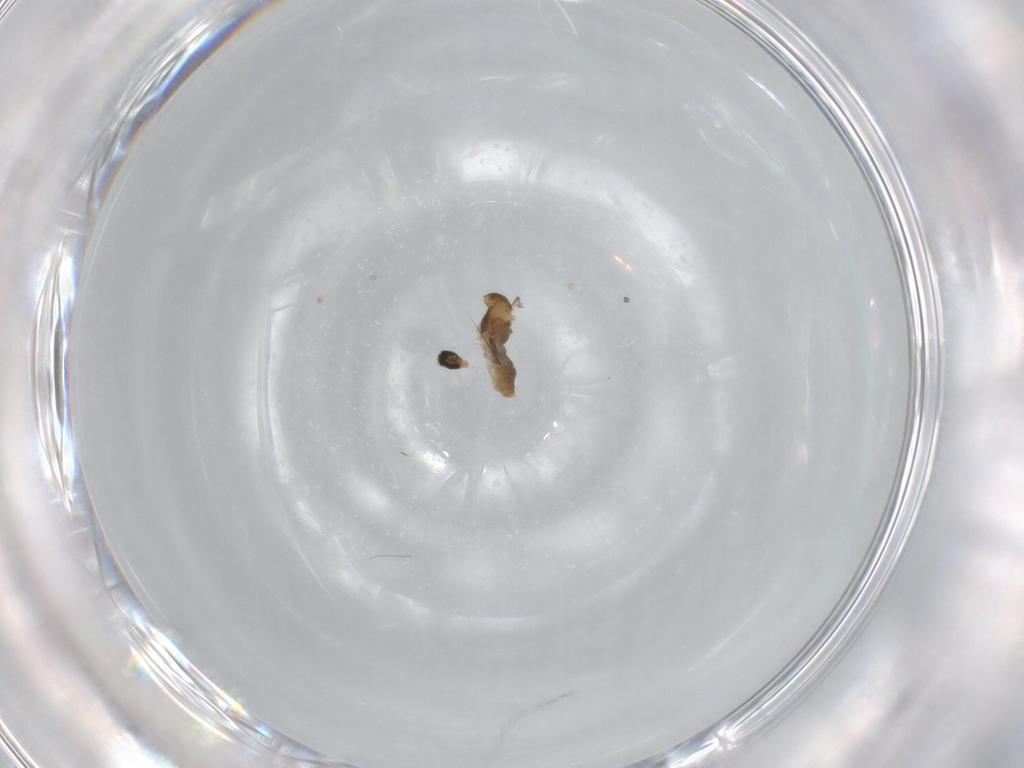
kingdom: Animalia
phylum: Arthropoda
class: Insecta
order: Diptera
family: Cecidomyiidae
